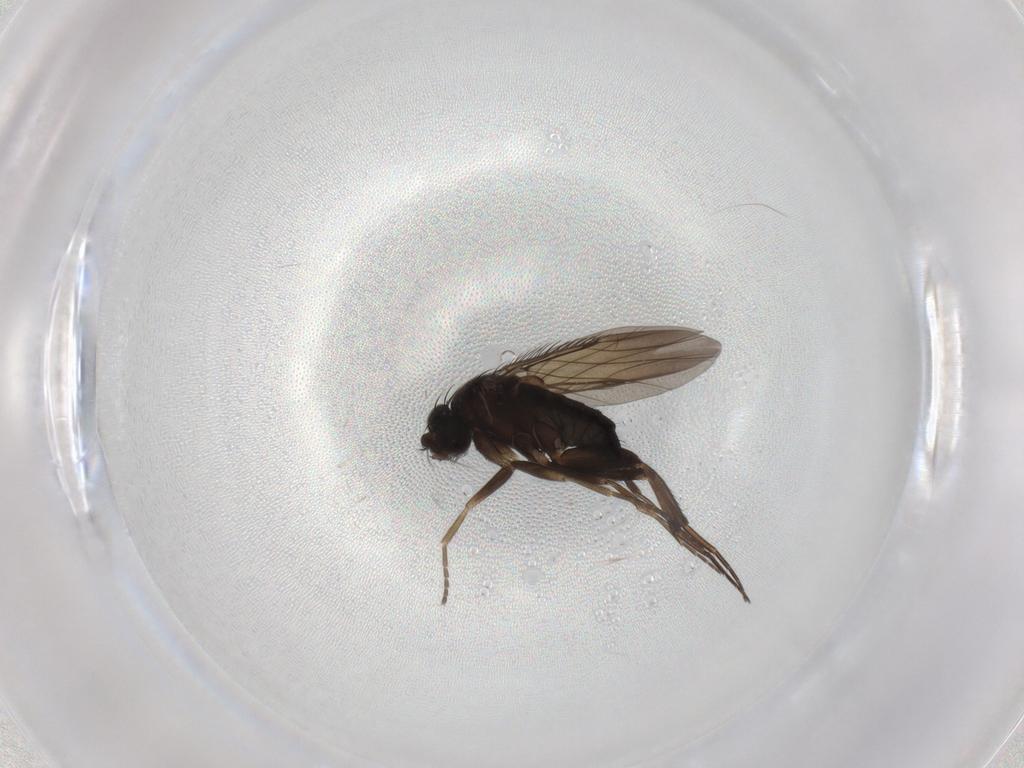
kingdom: Animalia
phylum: Arthropoda
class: Insecta
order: Diptera
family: Phoridae
